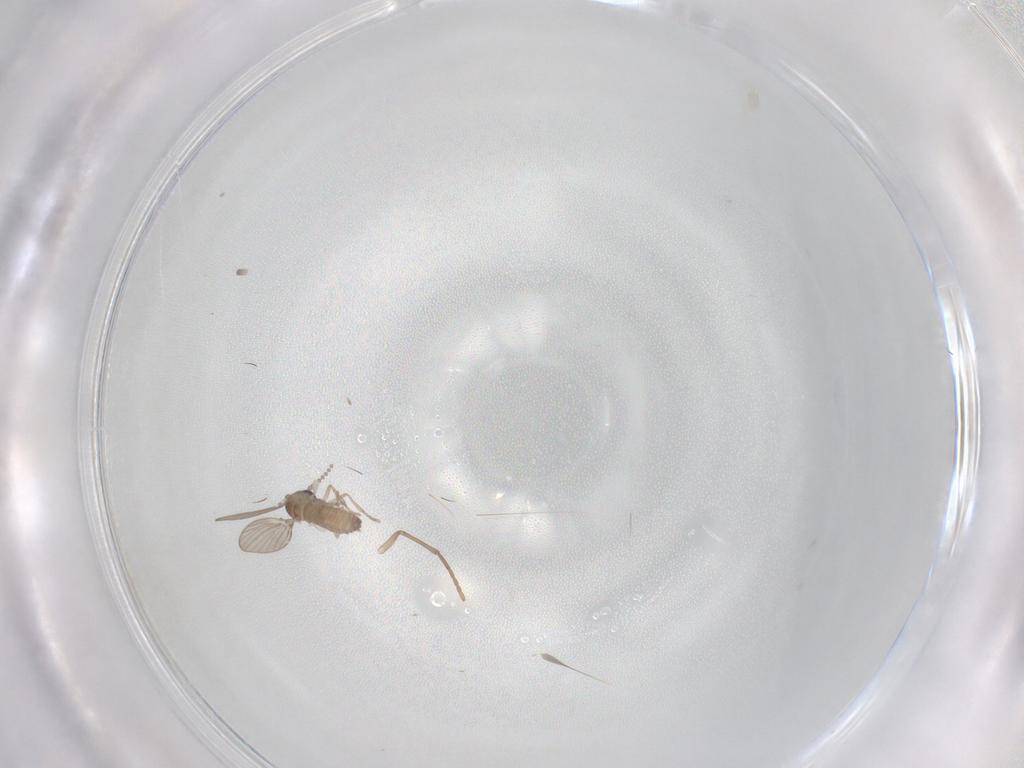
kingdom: Animalia
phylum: Arthropoda
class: Insecta
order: Diptera
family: Psychodidae
